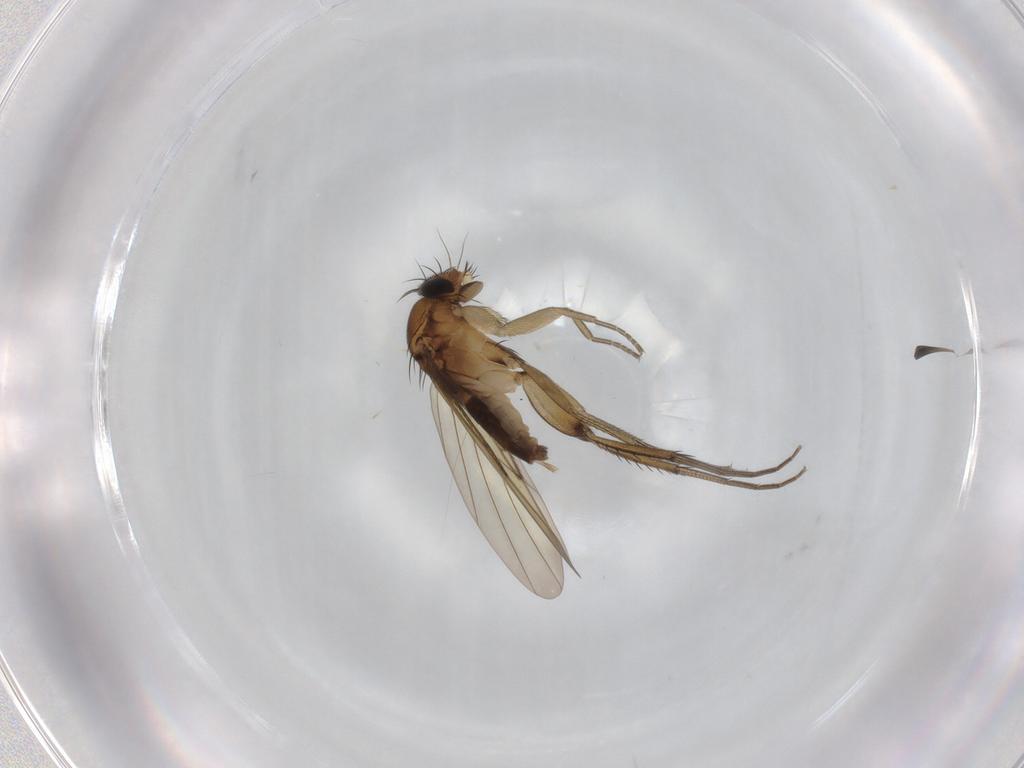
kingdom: Animalia
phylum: Arthropoda
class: Insecta
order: Diptera
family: Phoridae
